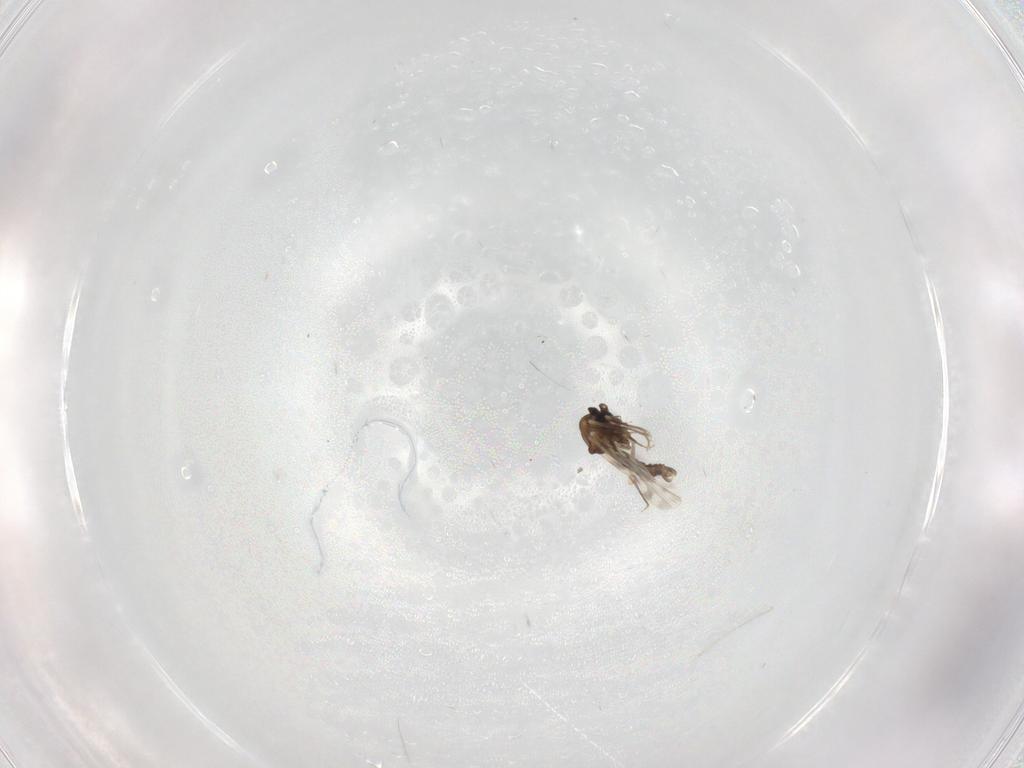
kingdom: Animalia
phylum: Arthropoda
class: Insecta
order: Diptera
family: Ceratopogonidae
